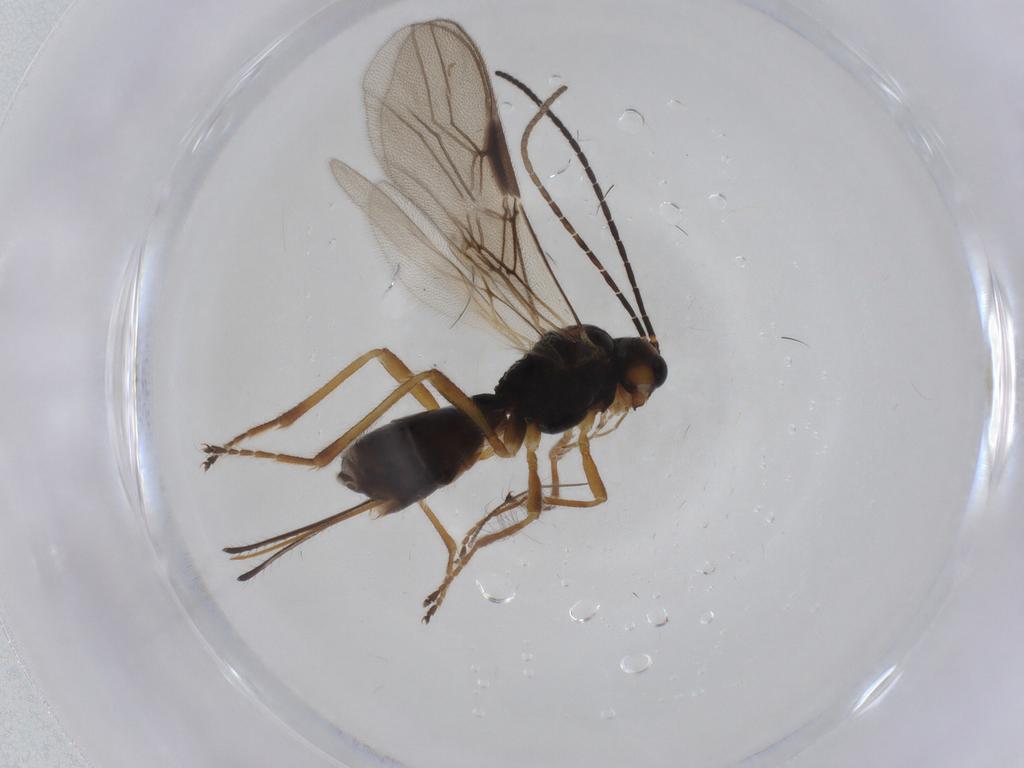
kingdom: Animalia
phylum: Arthropoda
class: Insecta
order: Hymenoptera
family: Braconidae
